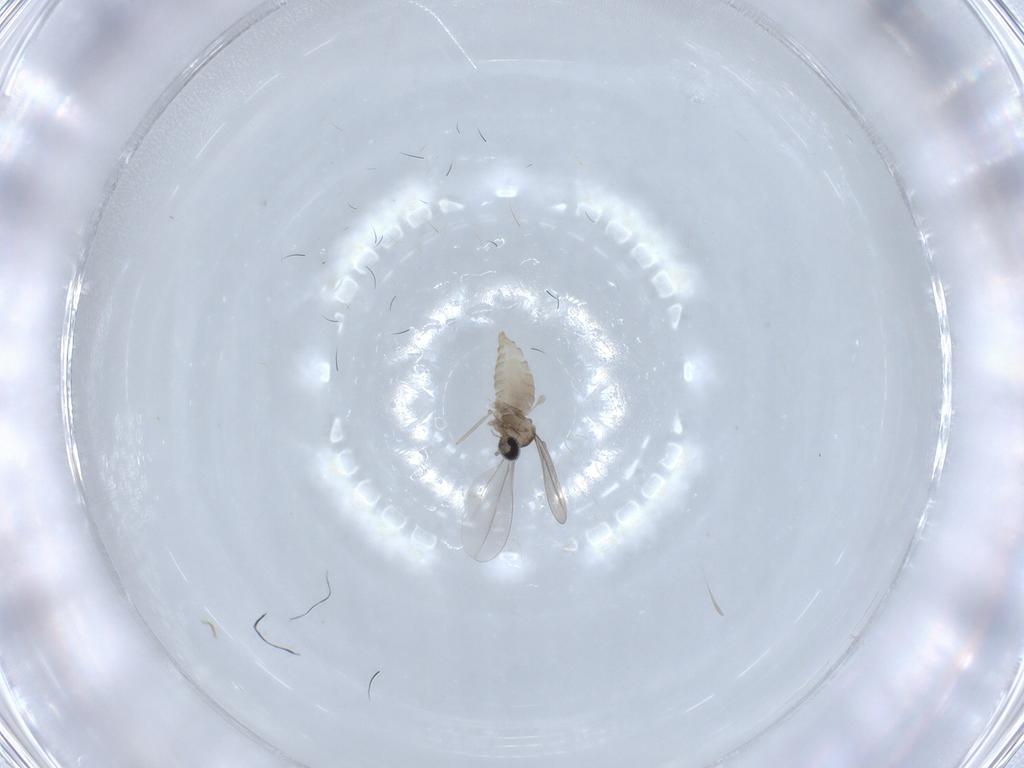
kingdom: Animalia
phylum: Arthropoda
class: Insecta
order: Diptera
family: Cecidomyiidae
